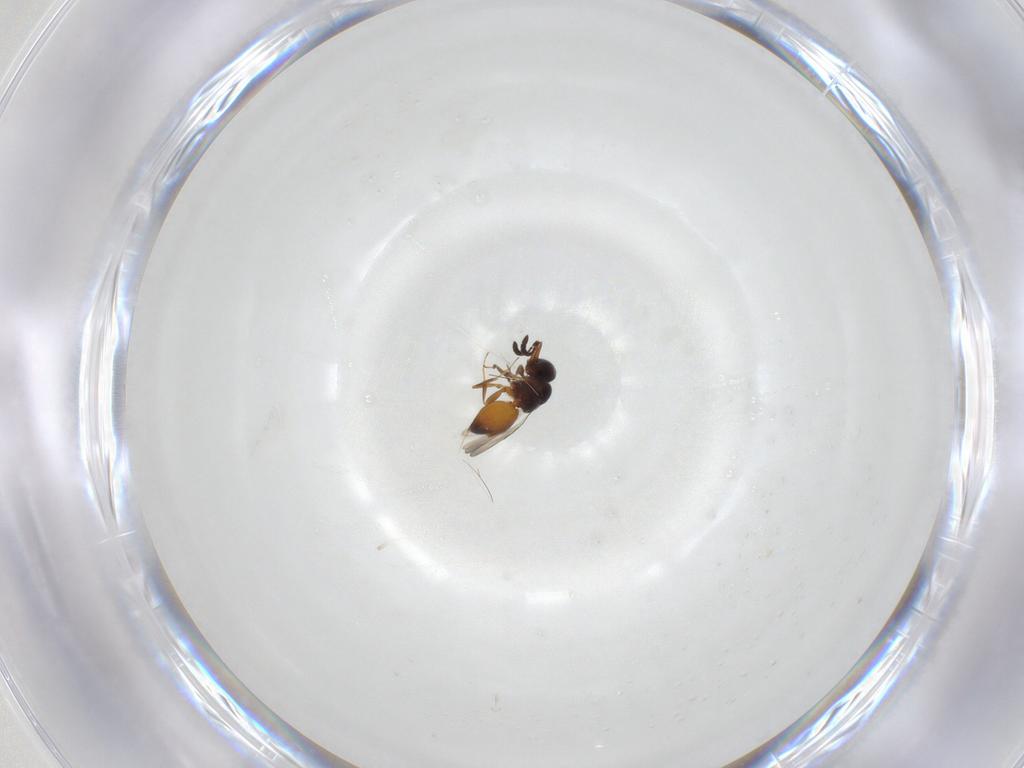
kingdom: Animalia
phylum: Arthropoda
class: Insecta
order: Hymenoptera
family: Ceraphronidae
